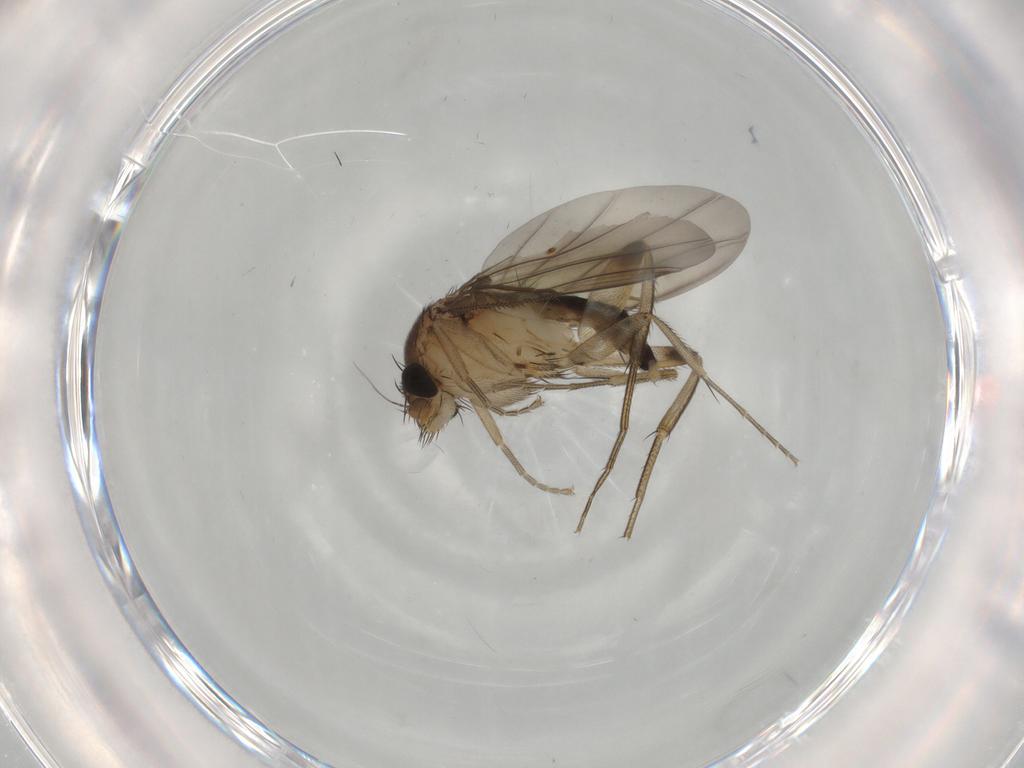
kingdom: Animalia
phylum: Arthropoda
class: Insecta
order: Diptera
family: Phoridae
